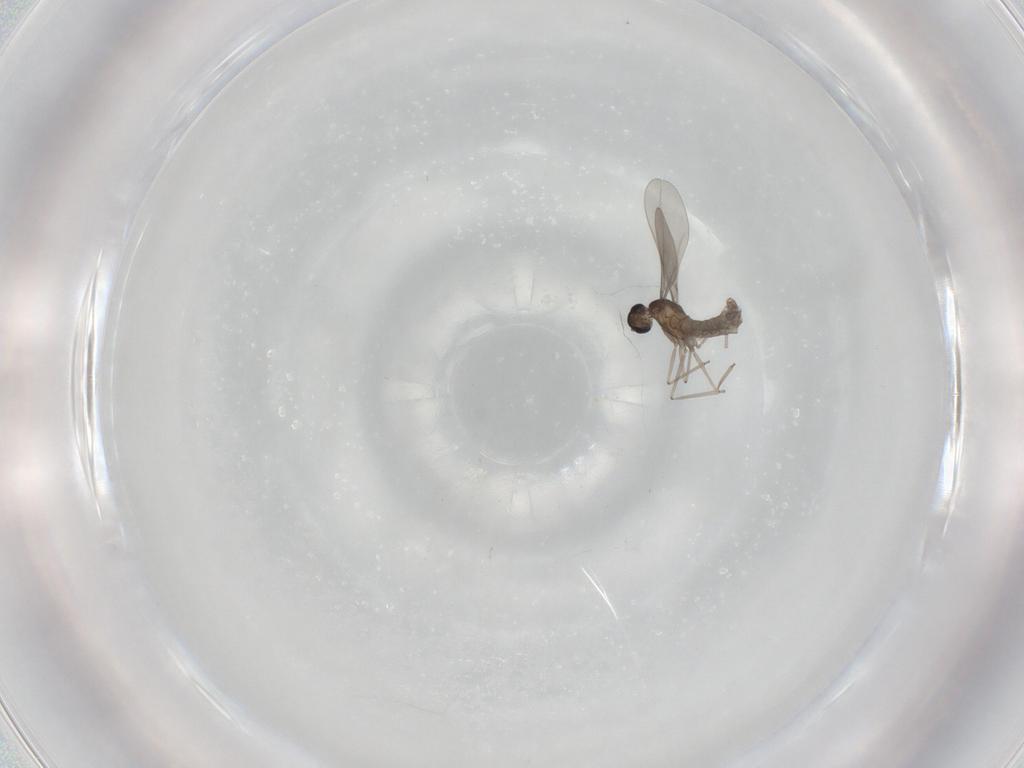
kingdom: Animalia
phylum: Arthropoda
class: Insecta
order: Diptera
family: Cecidomyiidae
